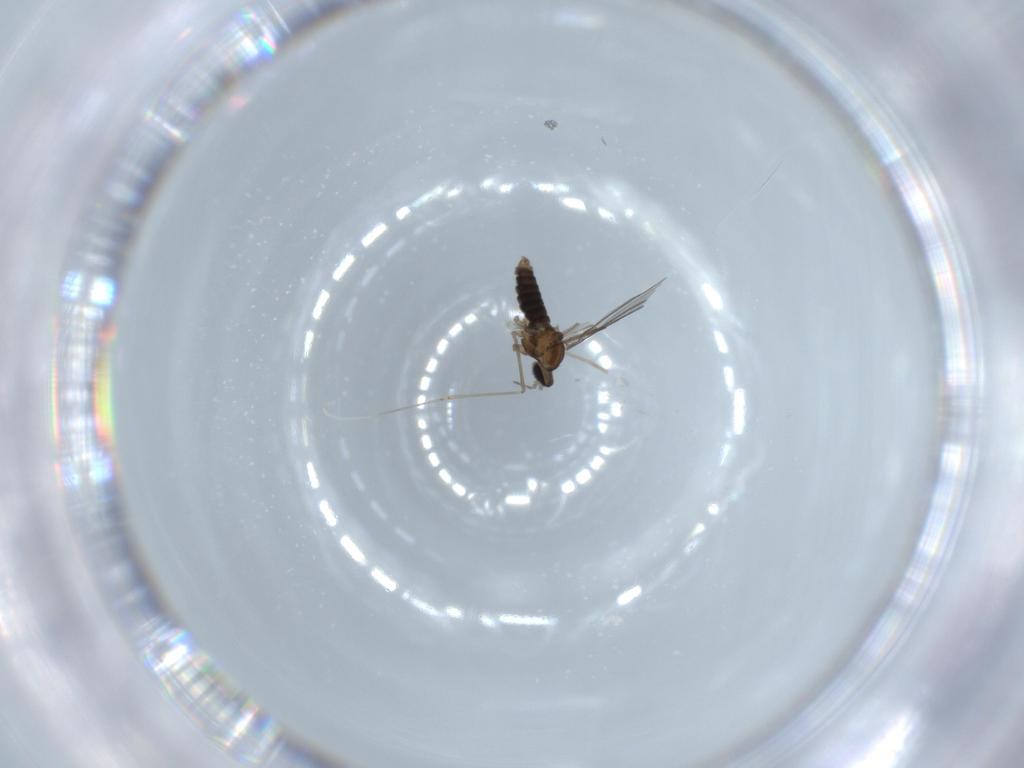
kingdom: Animalia
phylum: Arthropoda
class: Insecta
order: Diptera
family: Cecidomyiidae
